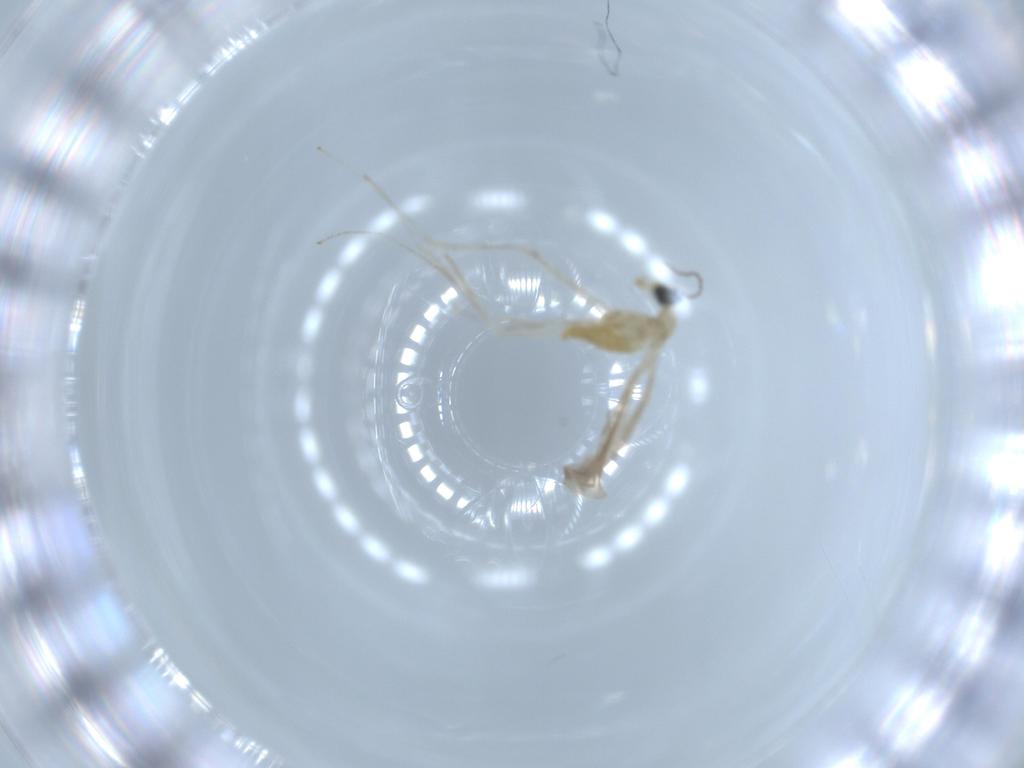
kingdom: Animalia
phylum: Arthropoda
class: Insecta
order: Diptera
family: Cecidomyiidae
